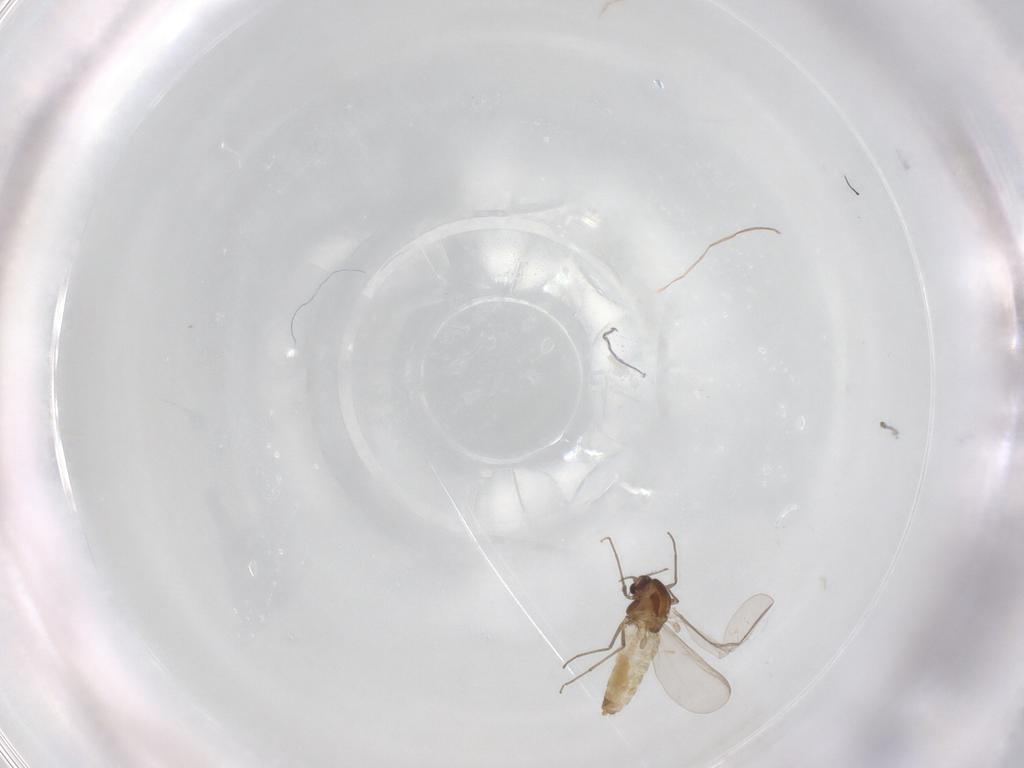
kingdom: Animalia
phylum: Arthropoda
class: Insecta
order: Diptera
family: Chironomidae
